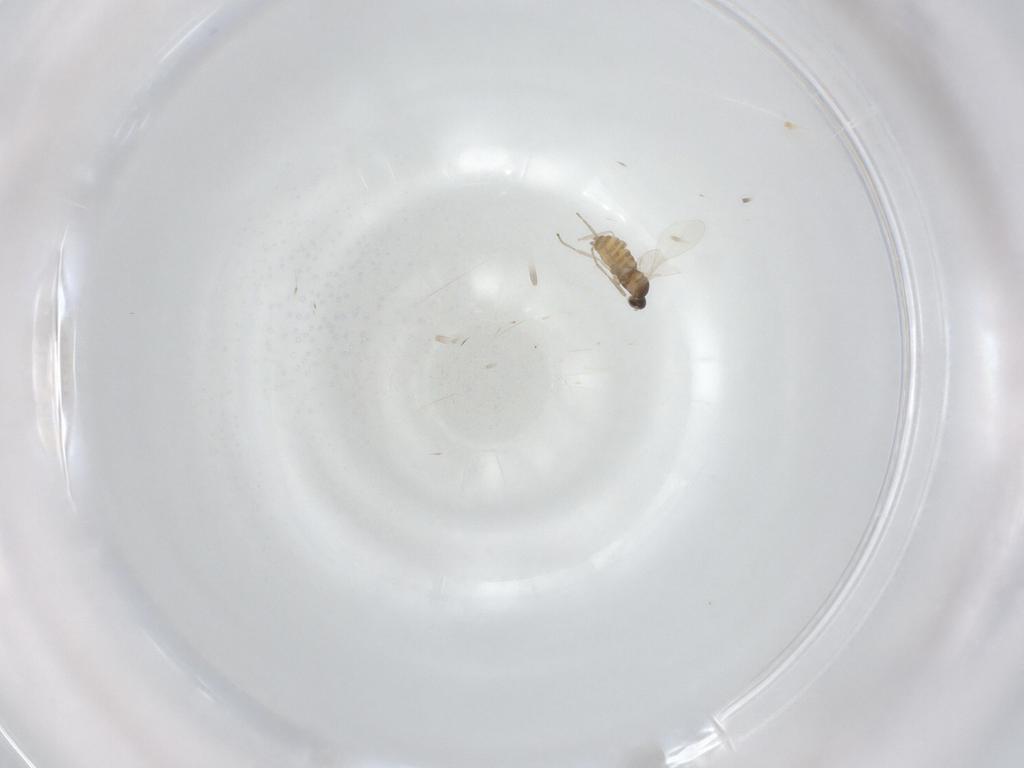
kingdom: Animalia
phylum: Arthropoda
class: Insecta
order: Diptera
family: Cecidomyiidae
